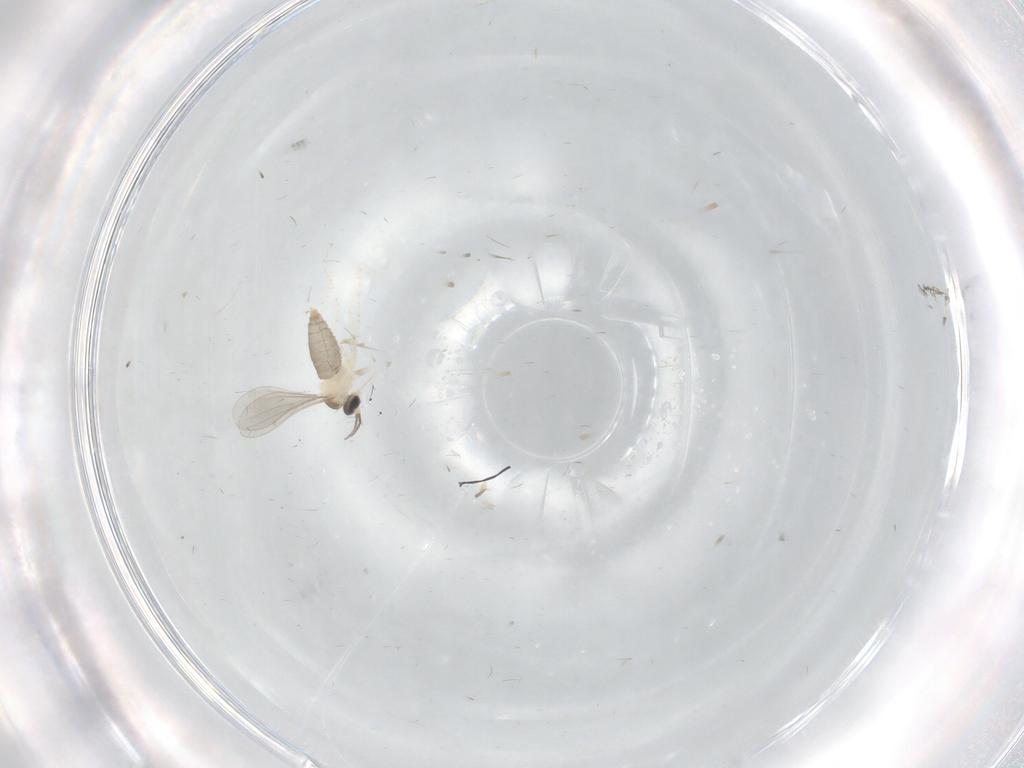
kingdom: Animalia
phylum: Arthropoda
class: Insecta
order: Diptera
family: Cecidomyiidae
